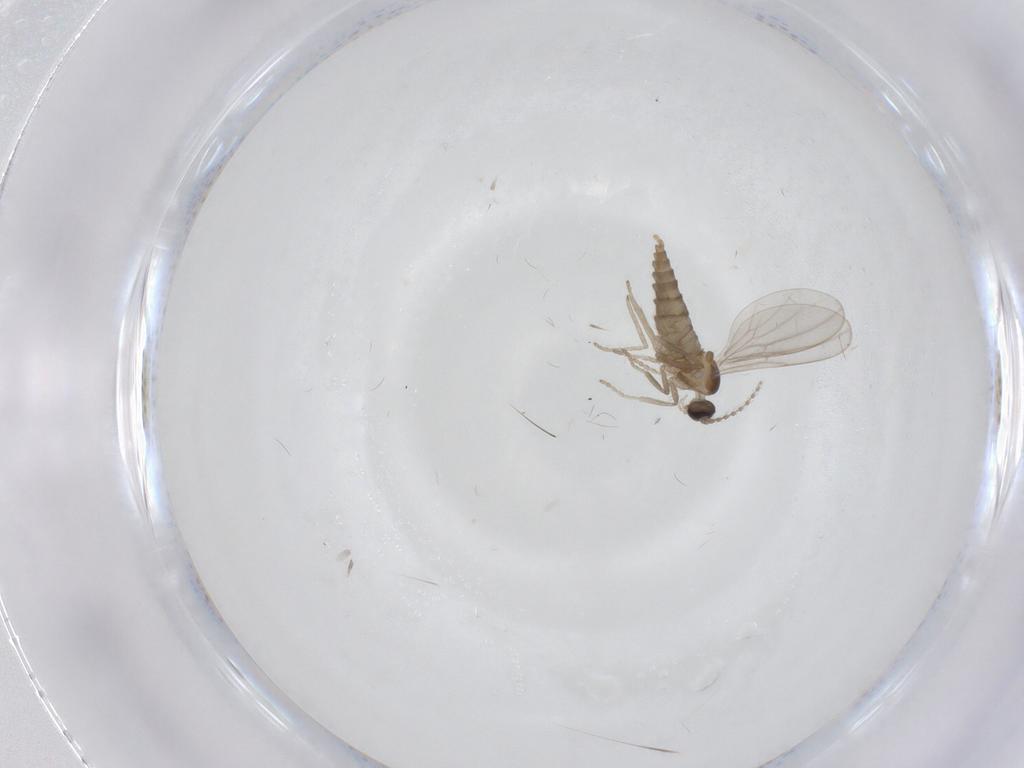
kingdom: Animalia
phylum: Arthropoda
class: Insecta
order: Diptera
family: Cecidomyiidae
